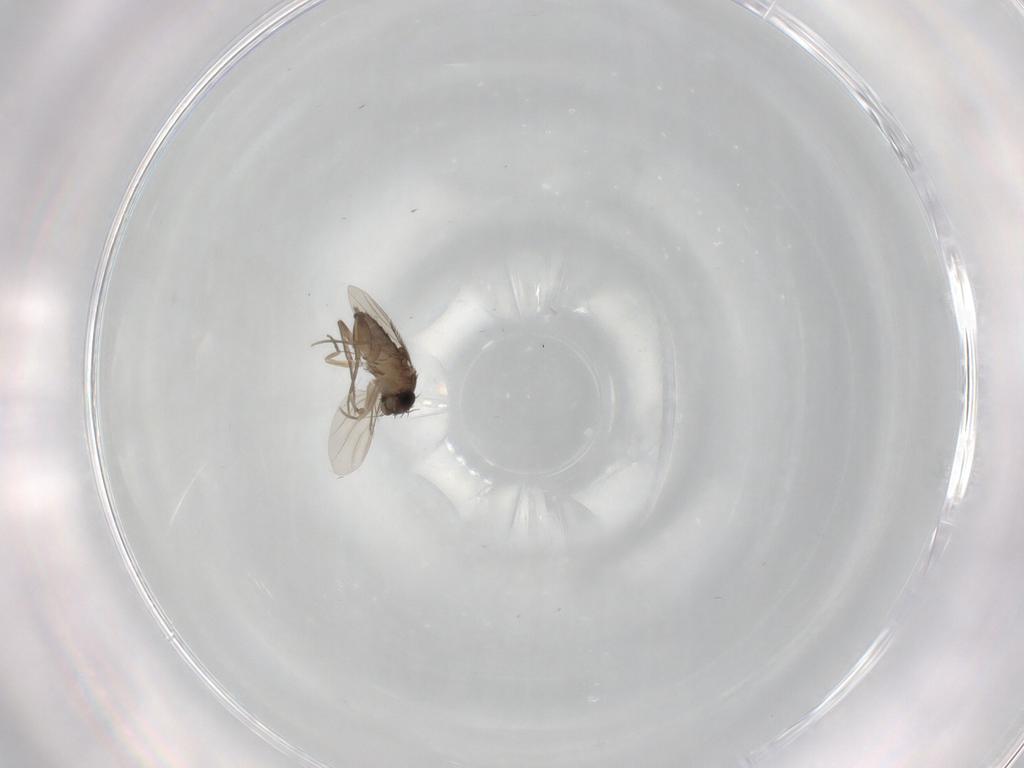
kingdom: Animalia
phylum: Arthropoda
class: Insecta
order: Diptera
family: Phoridae
